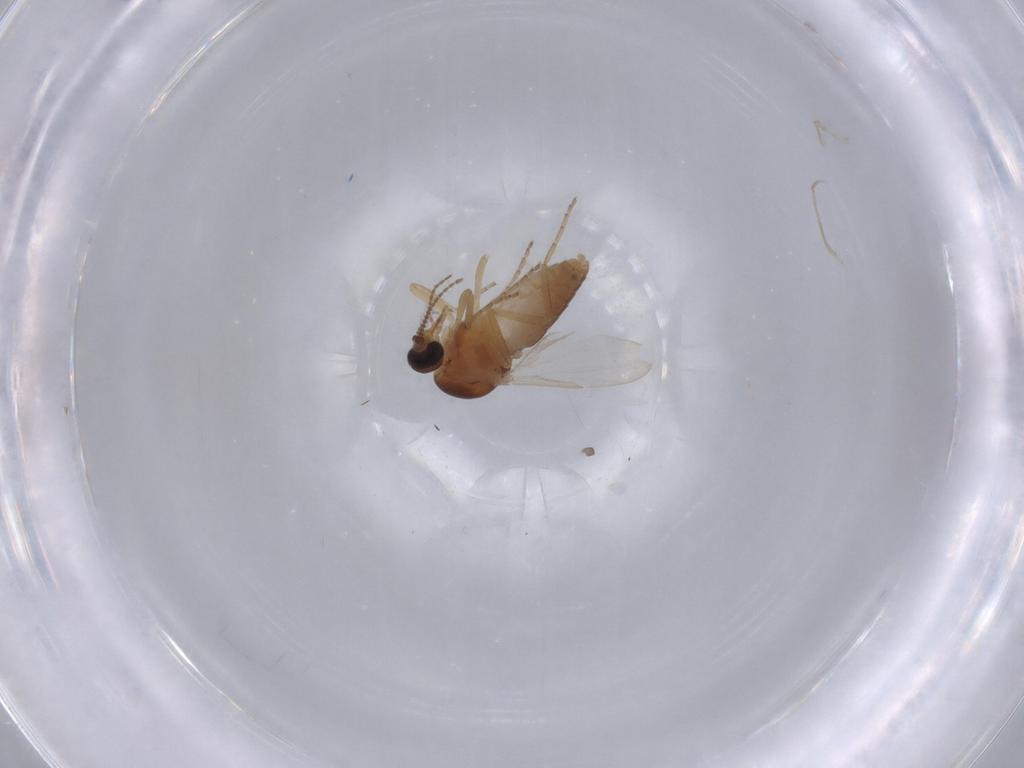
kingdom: Animalia
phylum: Arthropoda
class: Insecta
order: Diptera
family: Ceratopogonidae
